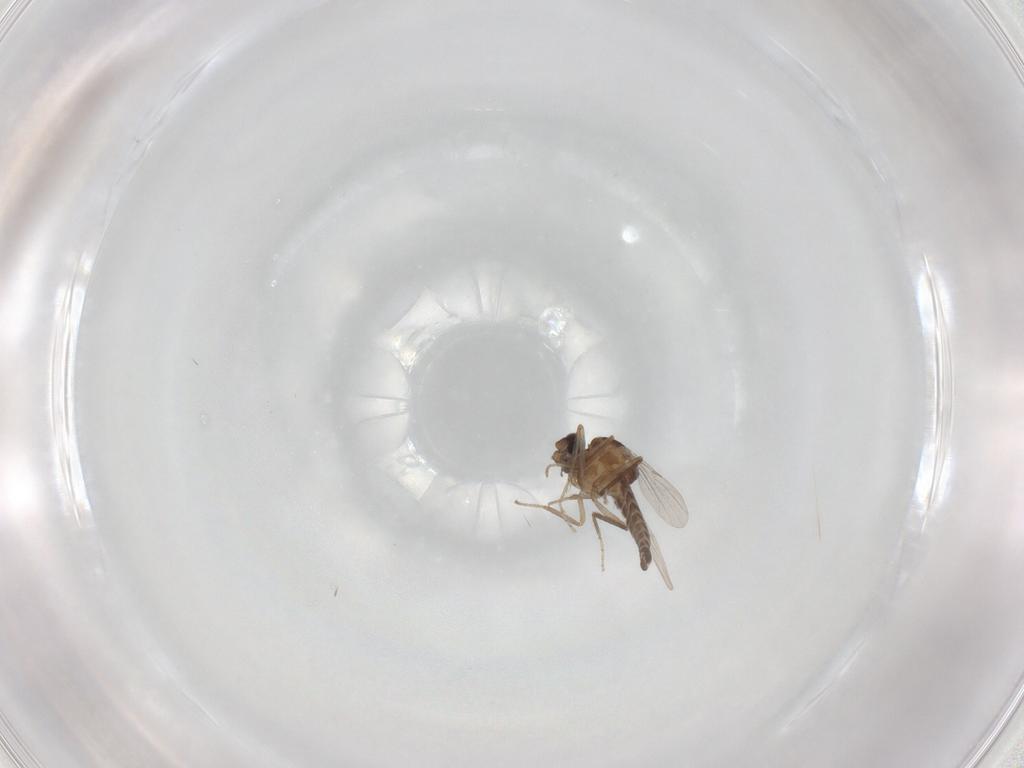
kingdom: Animalia
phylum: Arthropoda
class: Insecta
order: Diptera
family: Ceratopogonidae
